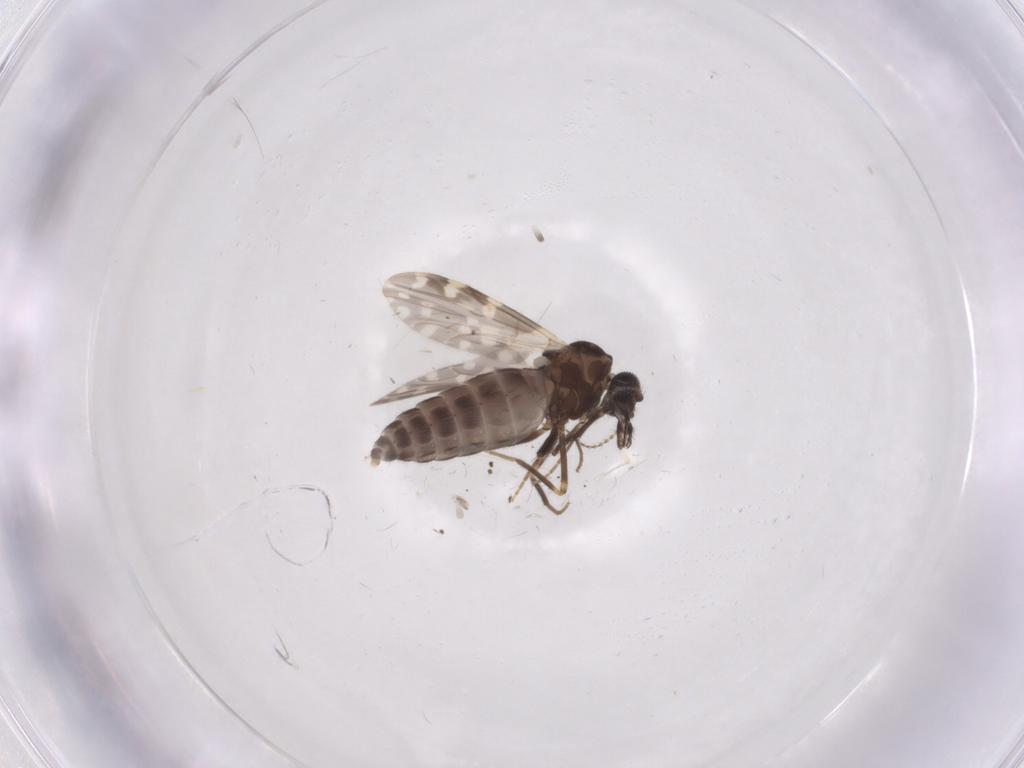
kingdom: Animalia
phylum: Arthropoda
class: Insecta
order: Diptera
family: Ceratopogonidae
